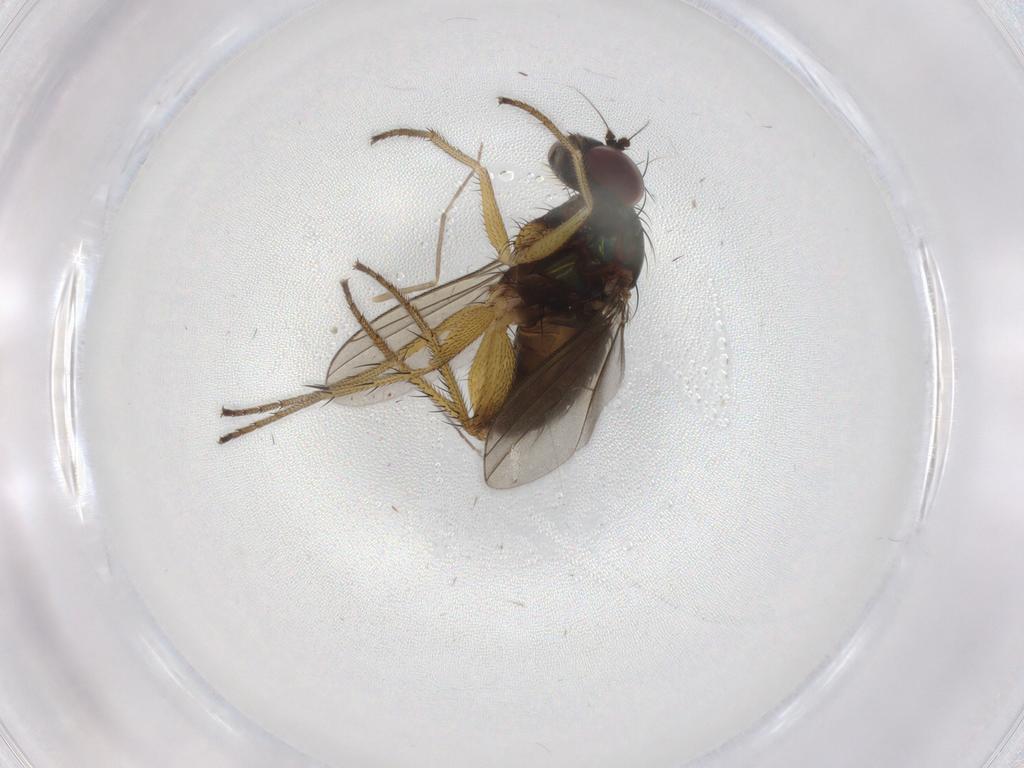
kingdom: Animalia
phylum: Arthropoda
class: Insecta
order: Diptera
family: Dolichopodidae
